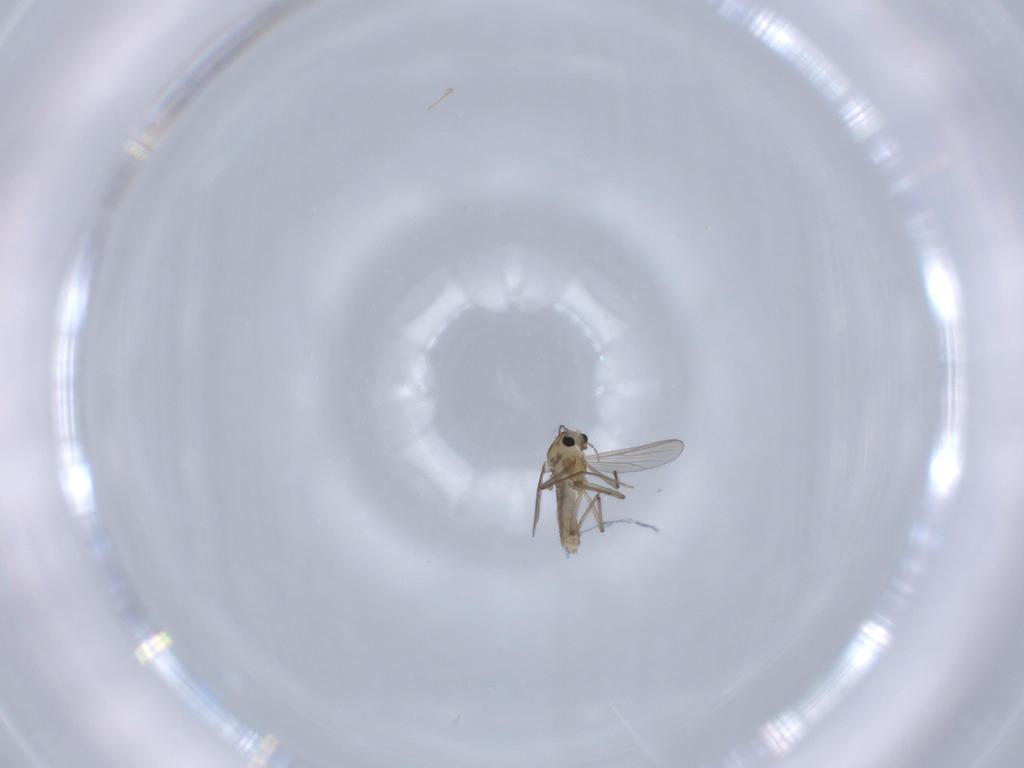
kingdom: Animalia
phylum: Arthropoda
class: Insecta
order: Diptera
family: Chironomidae
